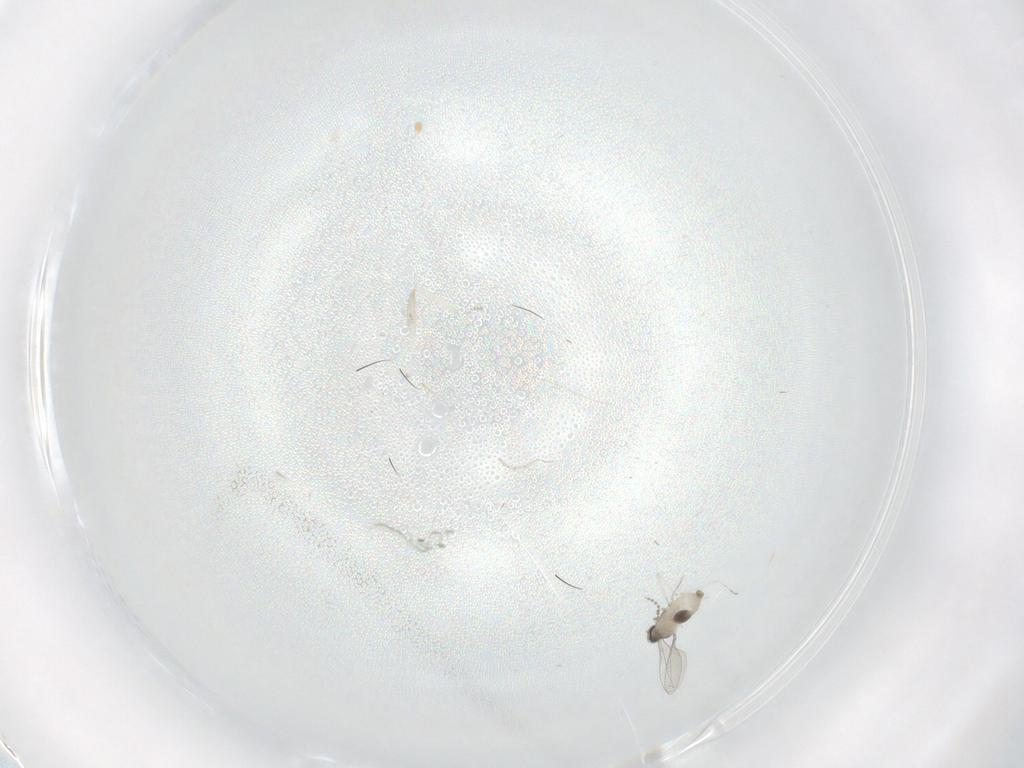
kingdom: Animalia
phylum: Arthropoda
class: Insecta
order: Diptera
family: Cecidomyiidae
